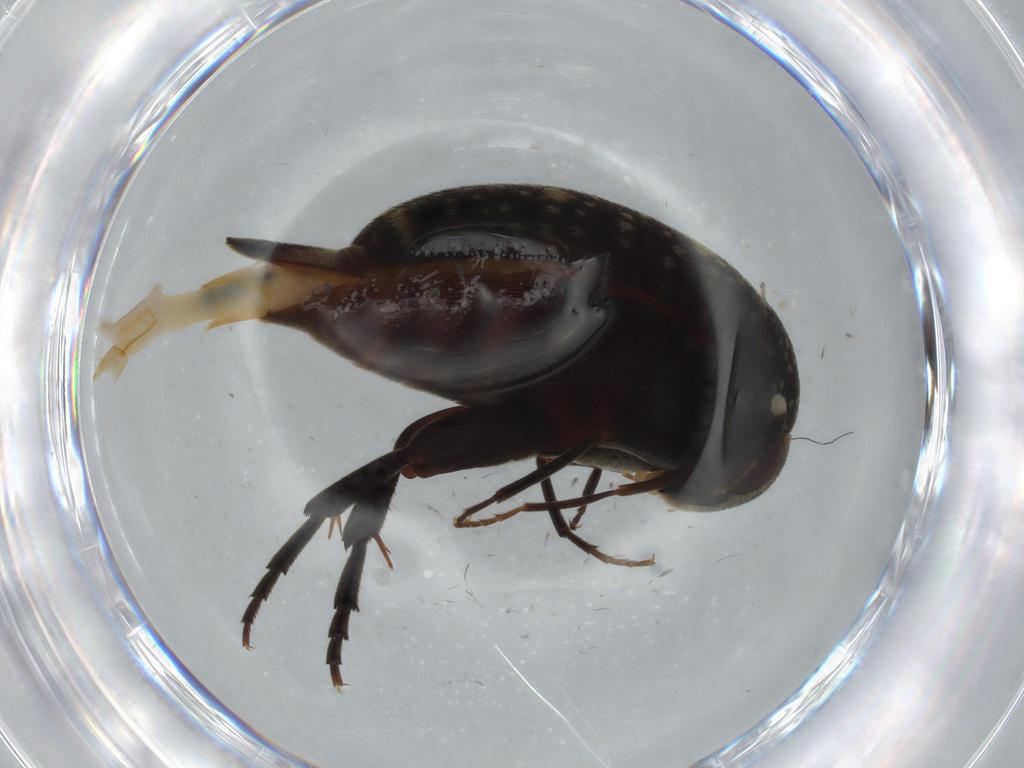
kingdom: Animalia
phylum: Arthropoda
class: Insecta
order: Coleoptera
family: Mordellidae
